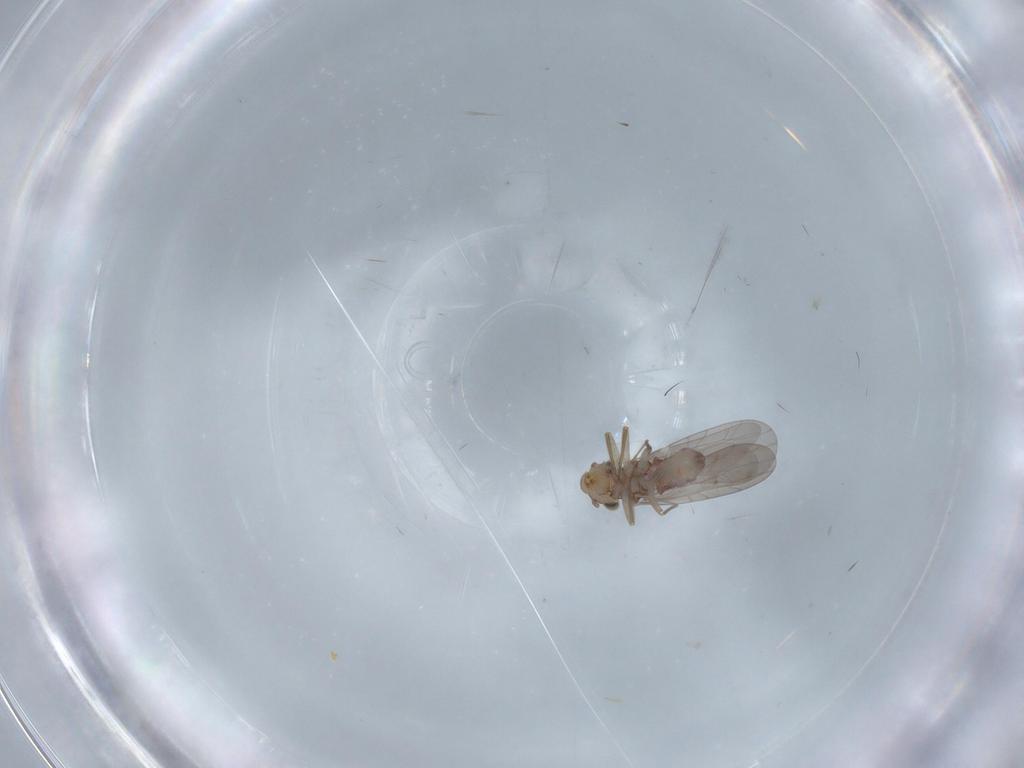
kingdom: Animalia
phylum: Arthropoda
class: Insecta
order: Psocodea
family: Lepidopsocidae
